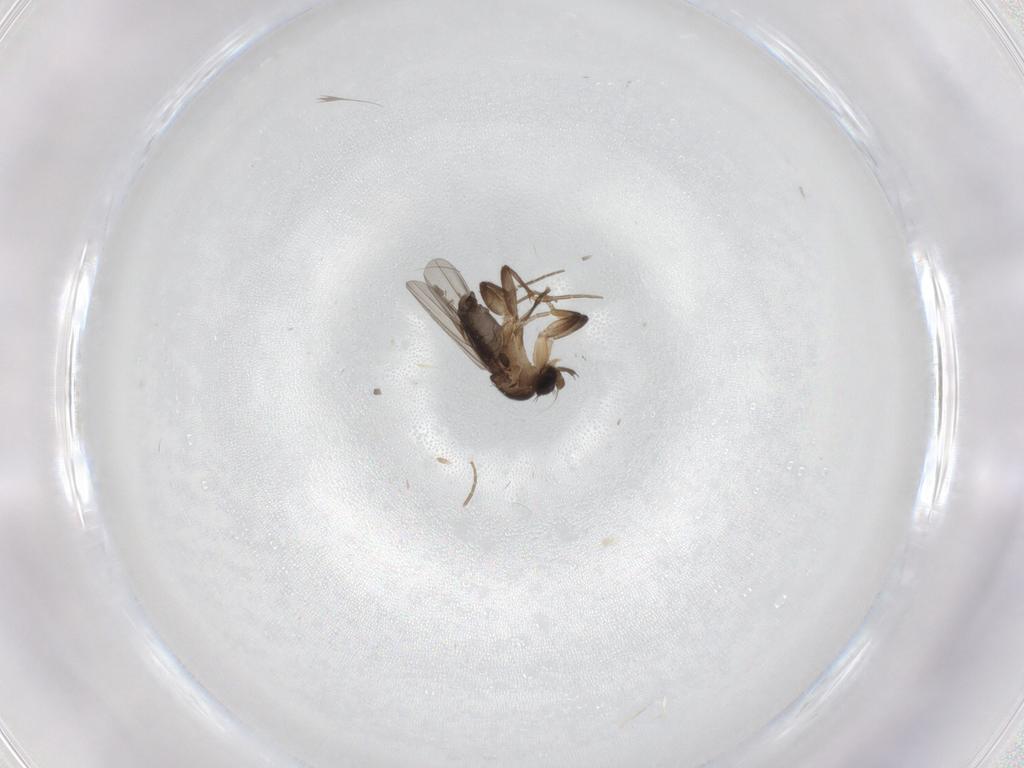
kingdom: Animalia
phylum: Arthropoda
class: Insecta
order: Diptera
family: Phoridae
